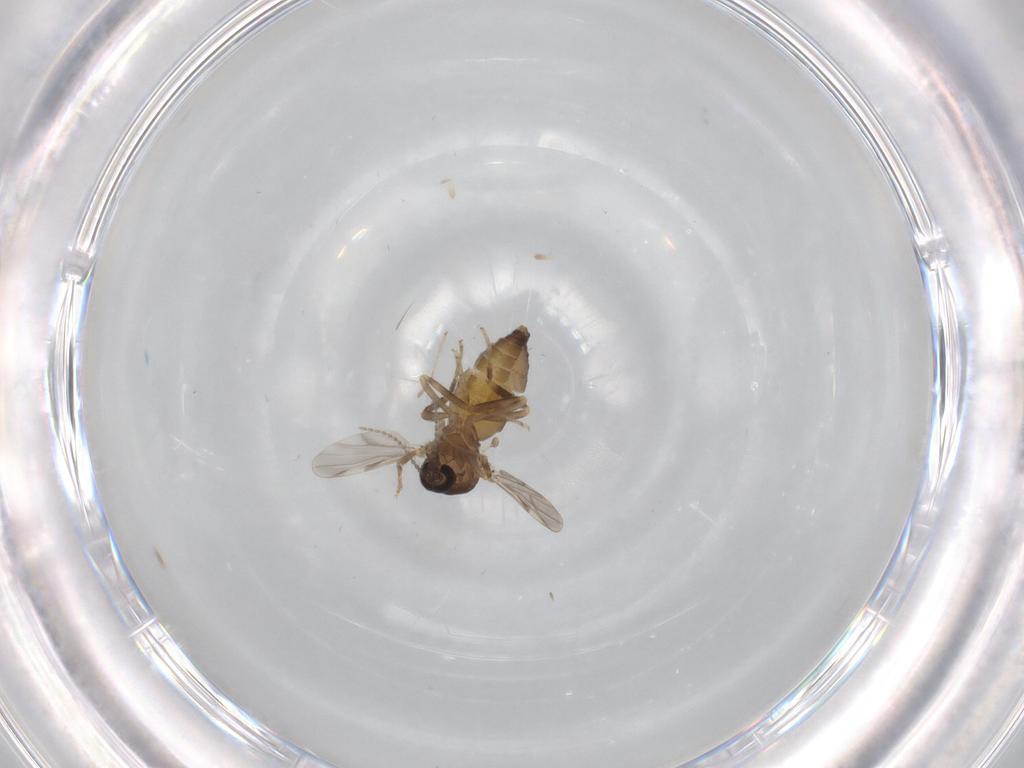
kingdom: Animalia
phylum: Arthropoda
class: Insecta
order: Diptera
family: Ceratopogonidae
